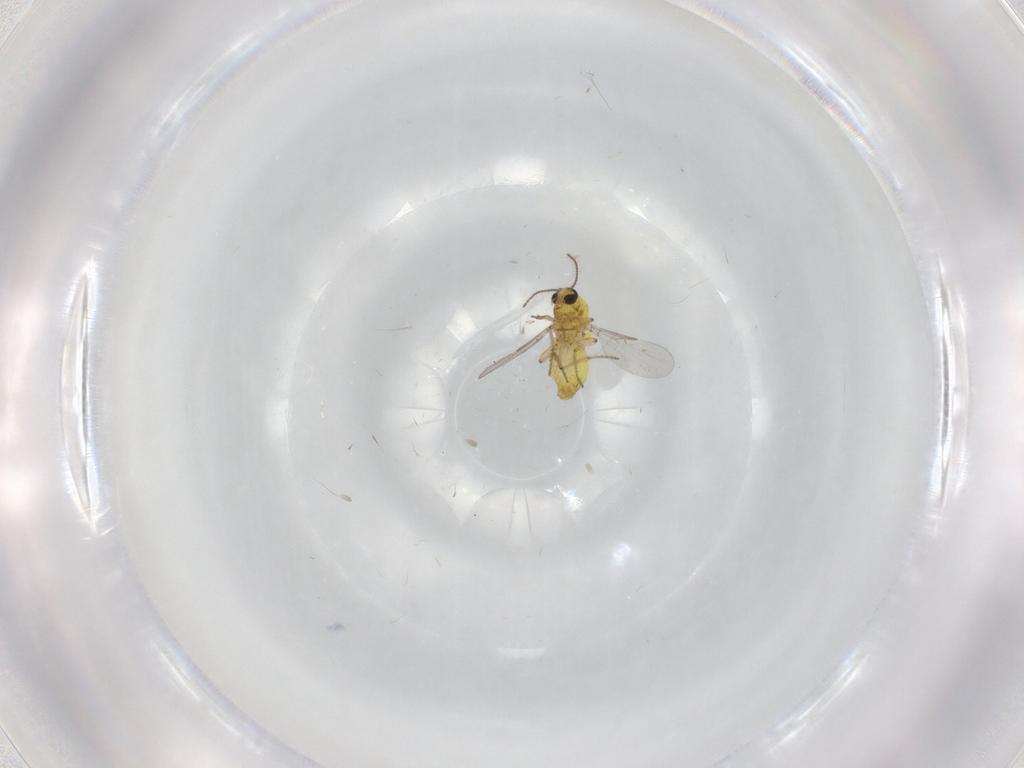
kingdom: Animalia
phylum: Arthropoda
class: Insecta
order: Diptera
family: Ceratopogonidae
